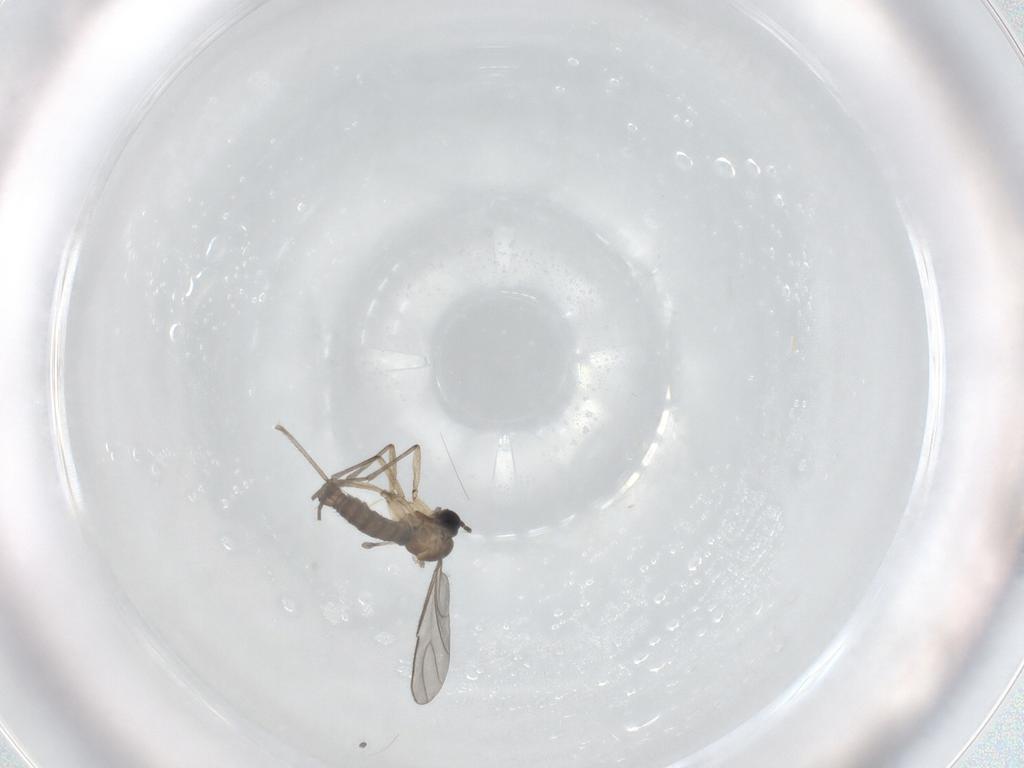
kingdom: Animalia
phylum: Arthropoda
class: Insecta
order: Diptera
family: Sciaridae
